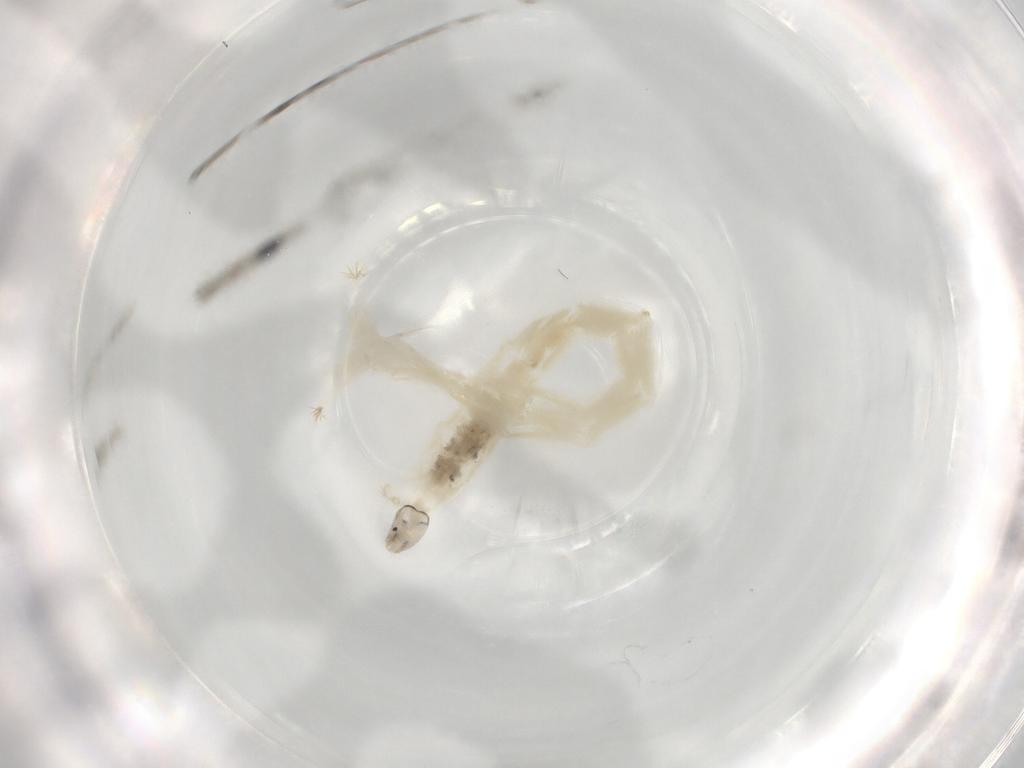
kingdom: Animalia
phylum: Arthropoda
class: Insecta
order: Diptera
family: Chironomidae
